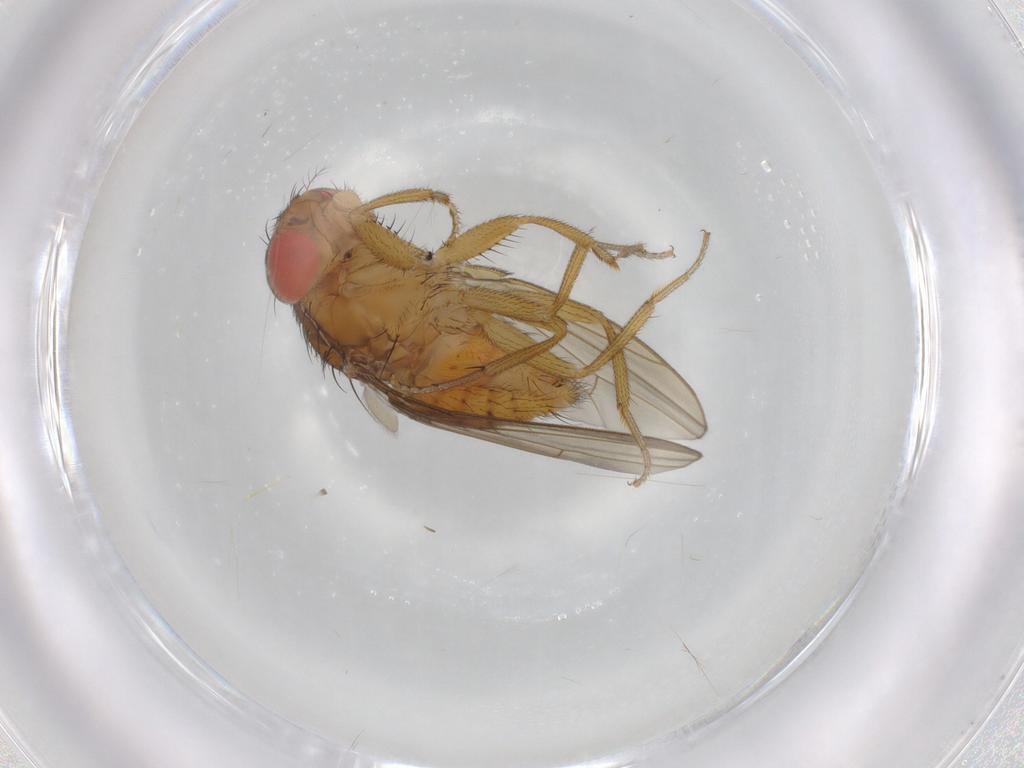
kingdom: Animalia
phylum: Arthropoda
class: Insecta
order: Diptera
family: Drosophilidae
